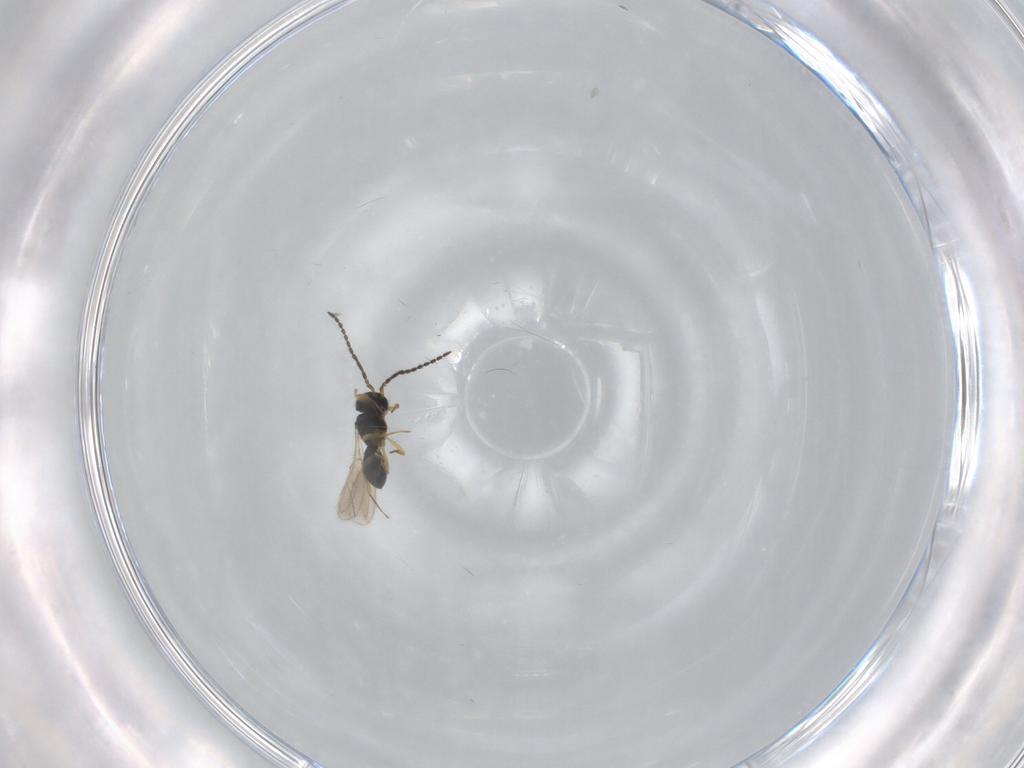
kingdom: Animalia
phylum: Arthropoda
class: Insecta
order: Hymenoptera
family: Scelionidae
